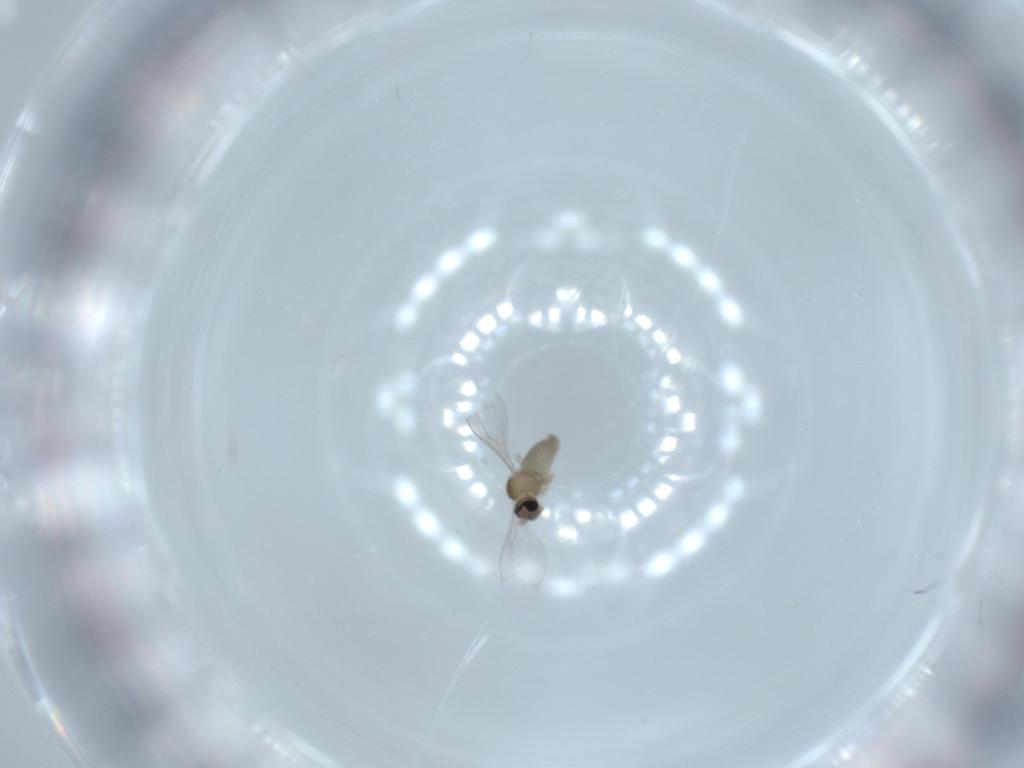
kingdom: Animalia
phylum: Arthropoda
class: Insecta
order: Diptera
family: Cecidomyiidae
